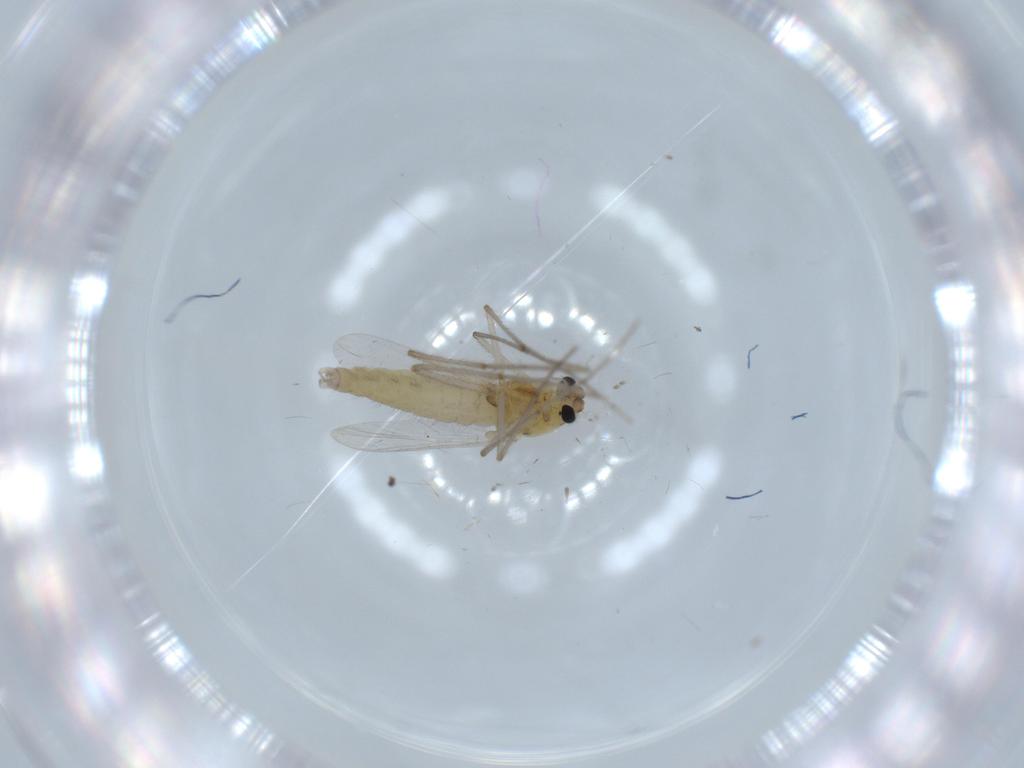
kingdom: Animalia
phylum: Arthropoda
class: Insecta
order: Diptera
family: Chironomidae
